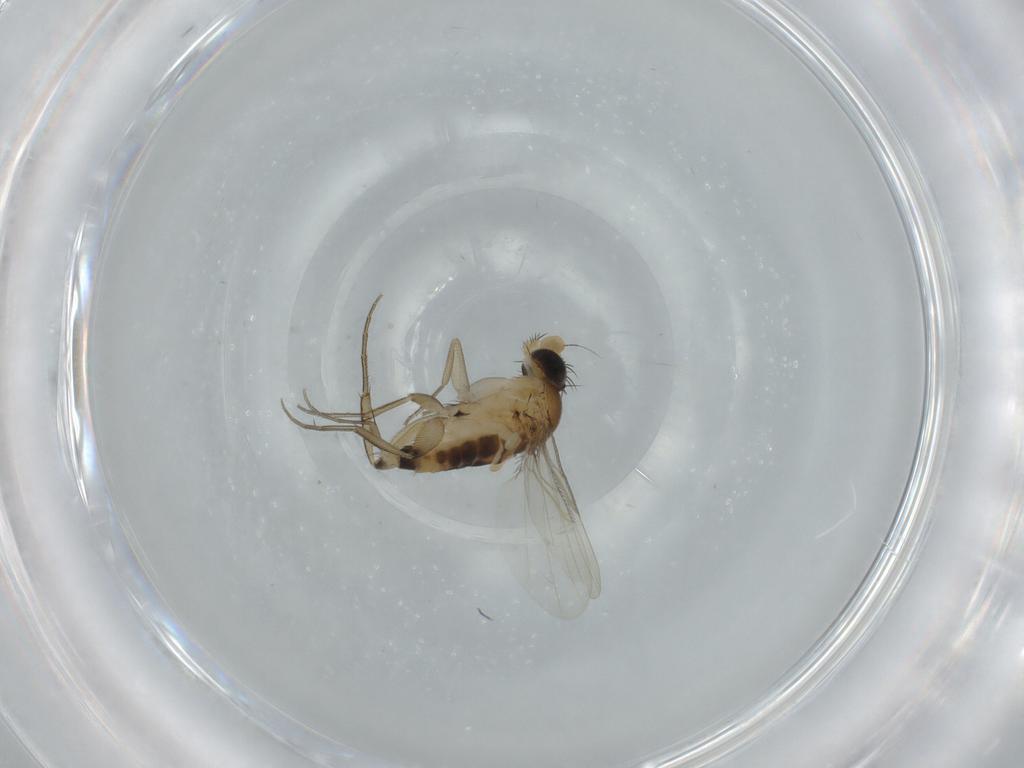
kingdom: Animalia
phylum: Arthropoda
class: Insecta
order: Diptera
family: Phoridae
